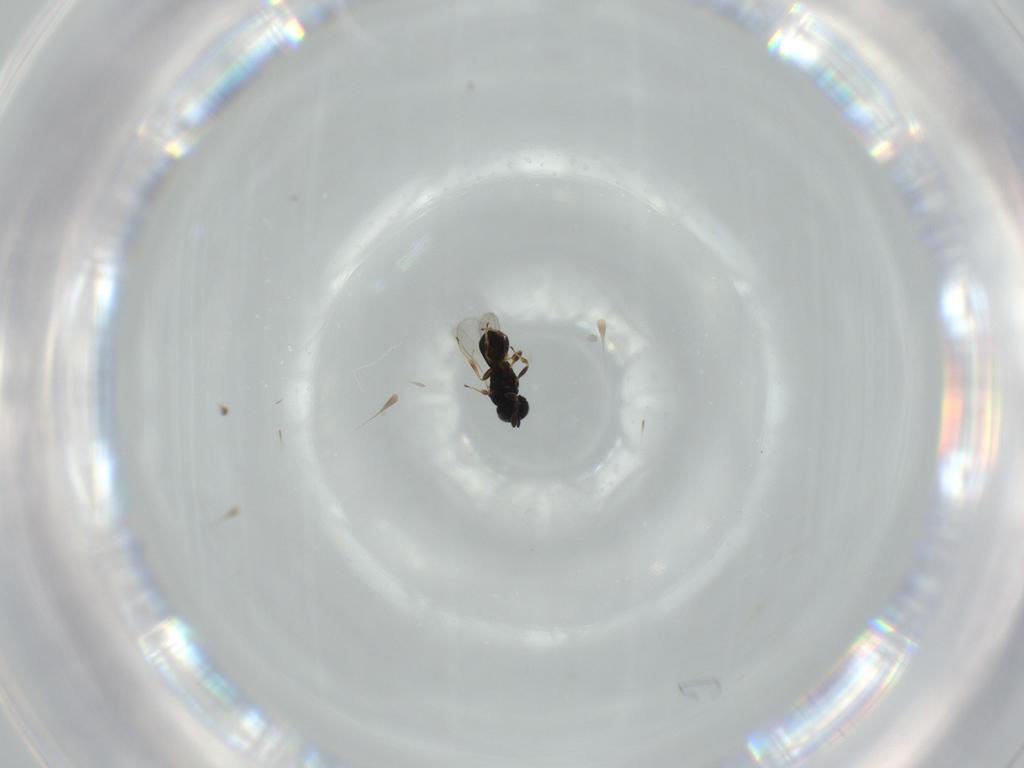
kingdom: Animalia
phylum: Arthropoda
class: Insecta
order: Hymenoptera
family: Scelionidae
